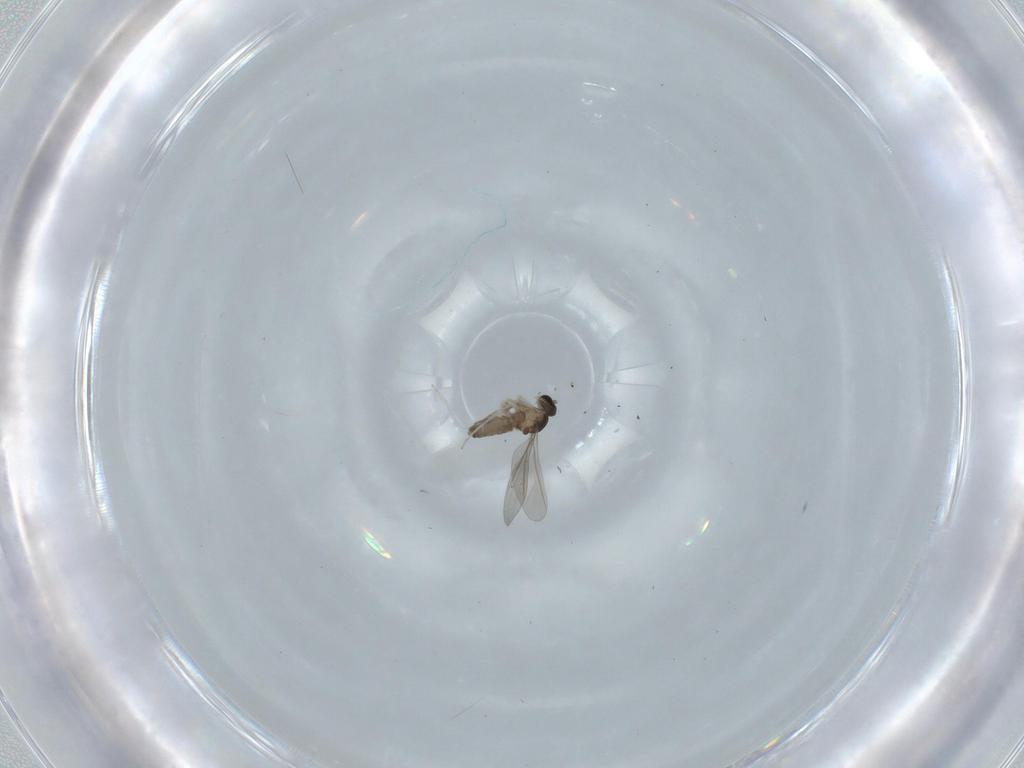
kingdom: Animalia
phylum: Arthropoda
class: Insecta
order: Diptera
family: Cecidomyiidae
